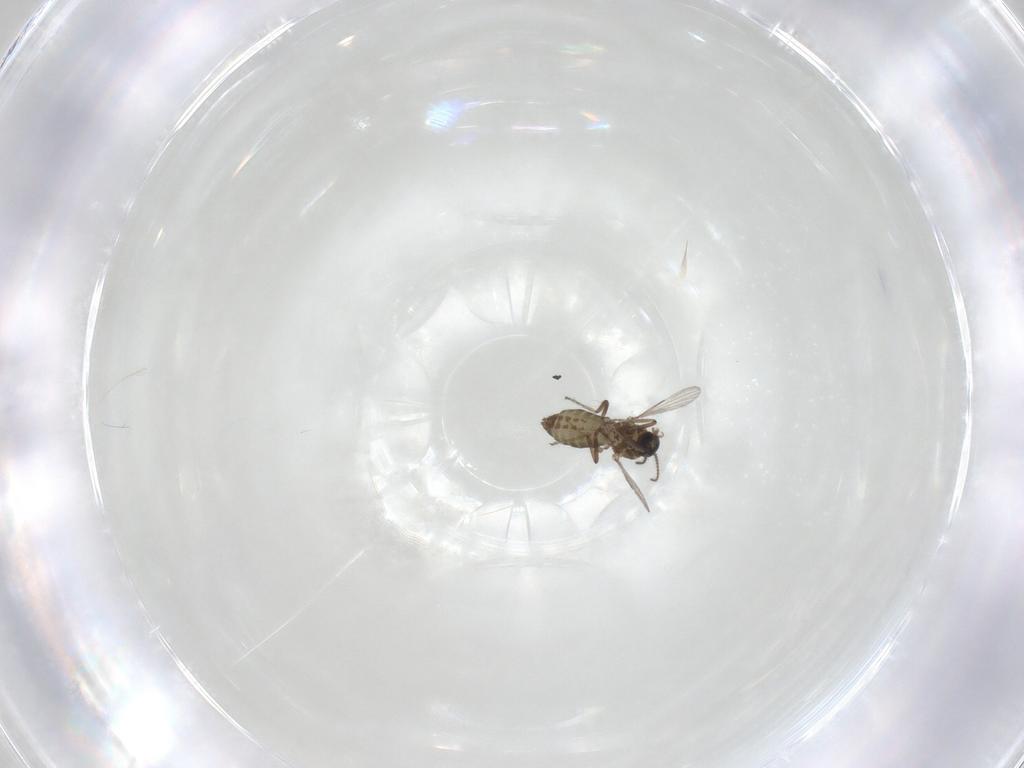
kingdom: Animalia
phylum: Arthropoda
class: Insecta
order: Diptera
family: Ceratopogonidae
